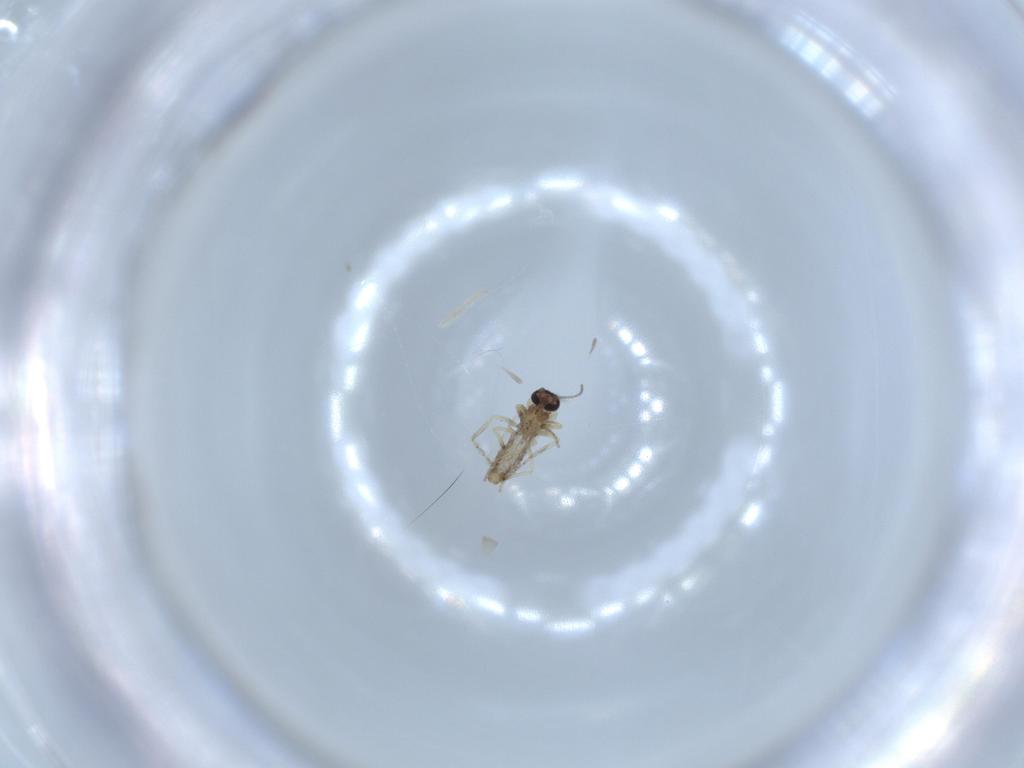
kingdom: Animalia
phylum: Arthropoda
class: Insecta
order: Diptera
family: Ceratopogonidae
